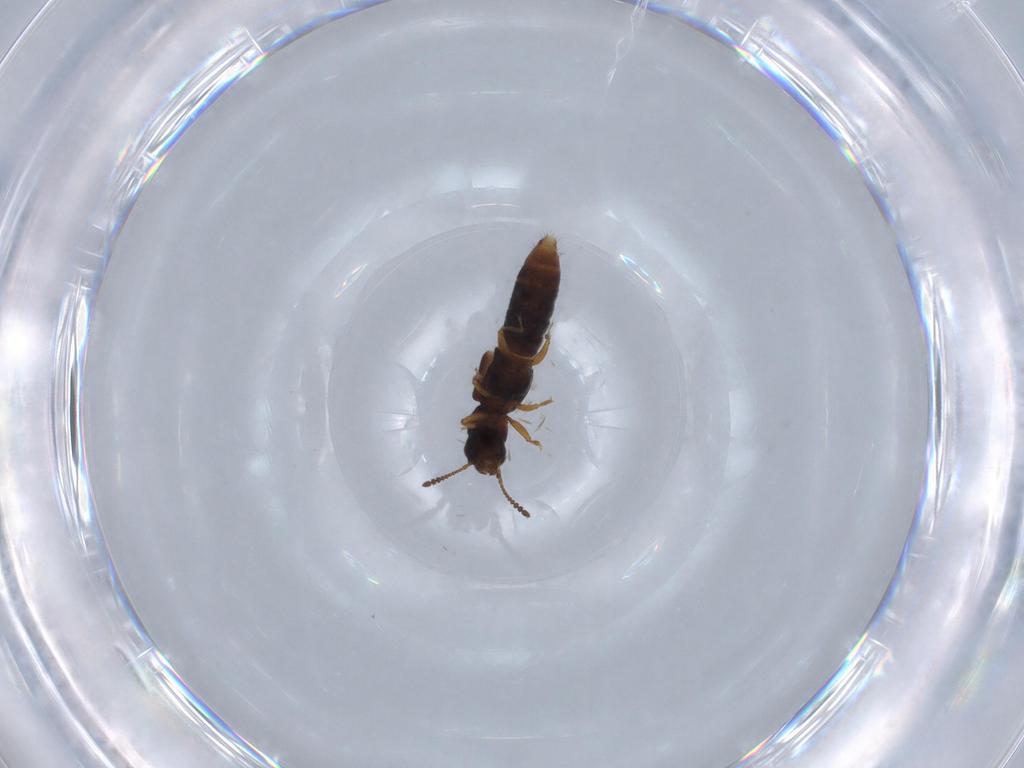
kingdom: Animalia
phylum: Arthropoda
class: Insecta
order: Coleoptera
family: Staphylinidae
